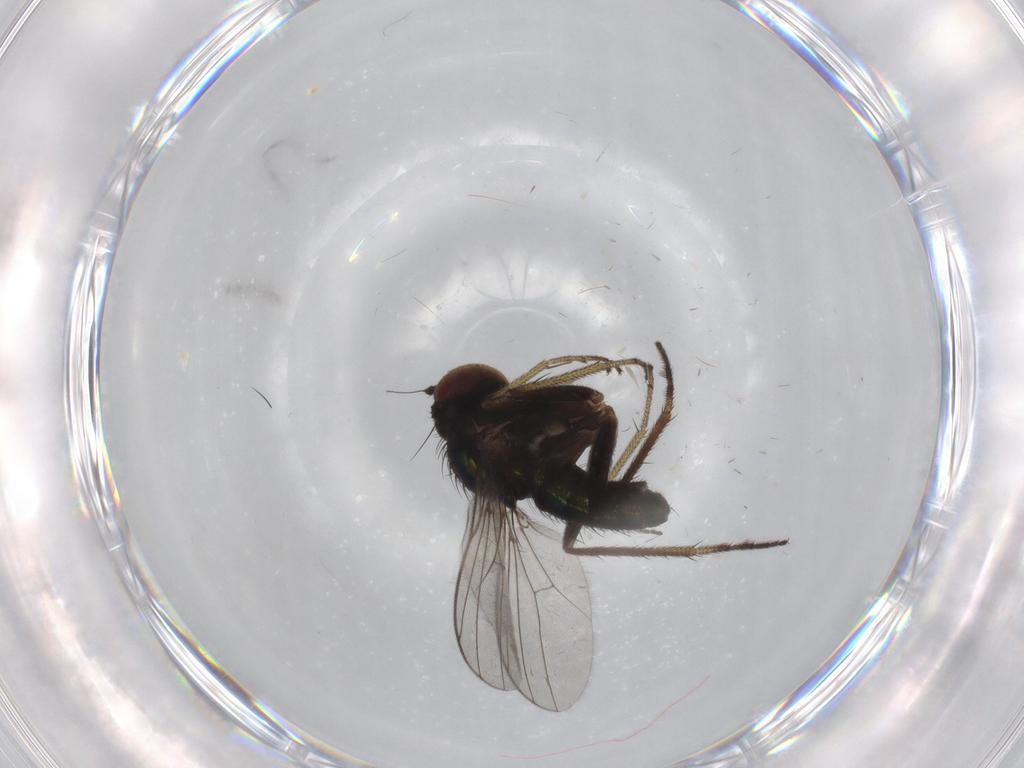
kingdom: Animalia
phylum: Arthropoda
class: Insecta
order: Diptera
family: Sciaridae
